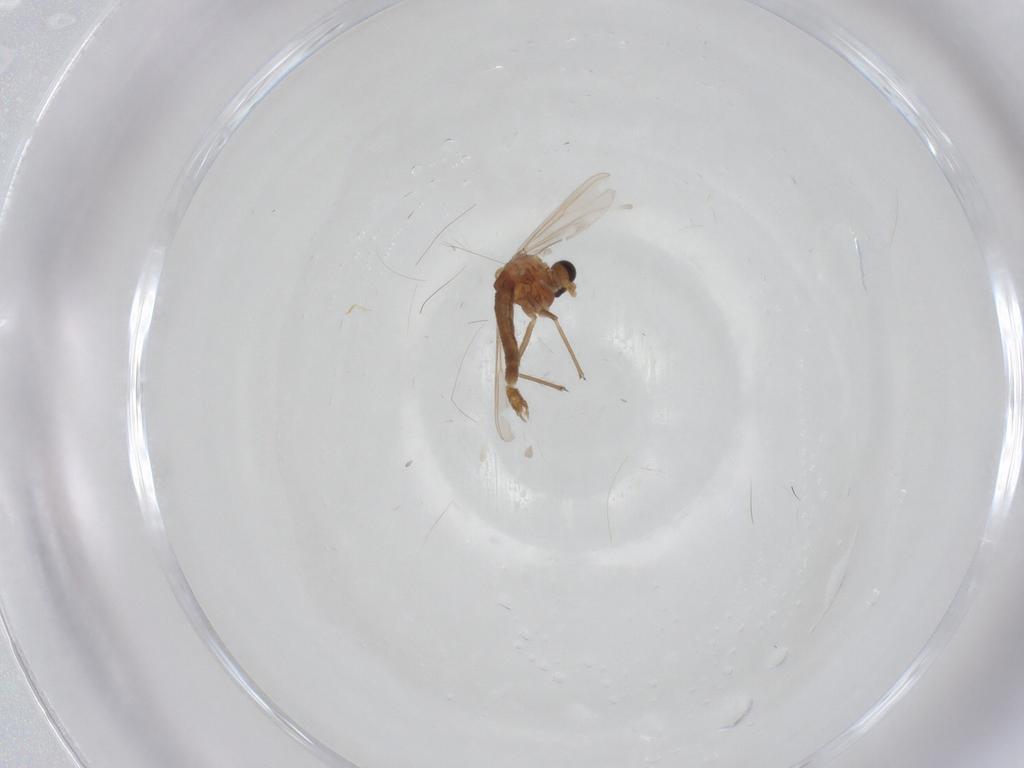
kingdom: Animalia
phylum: Arthropoda
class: Insecta
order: Diptera
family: Chironomidae
